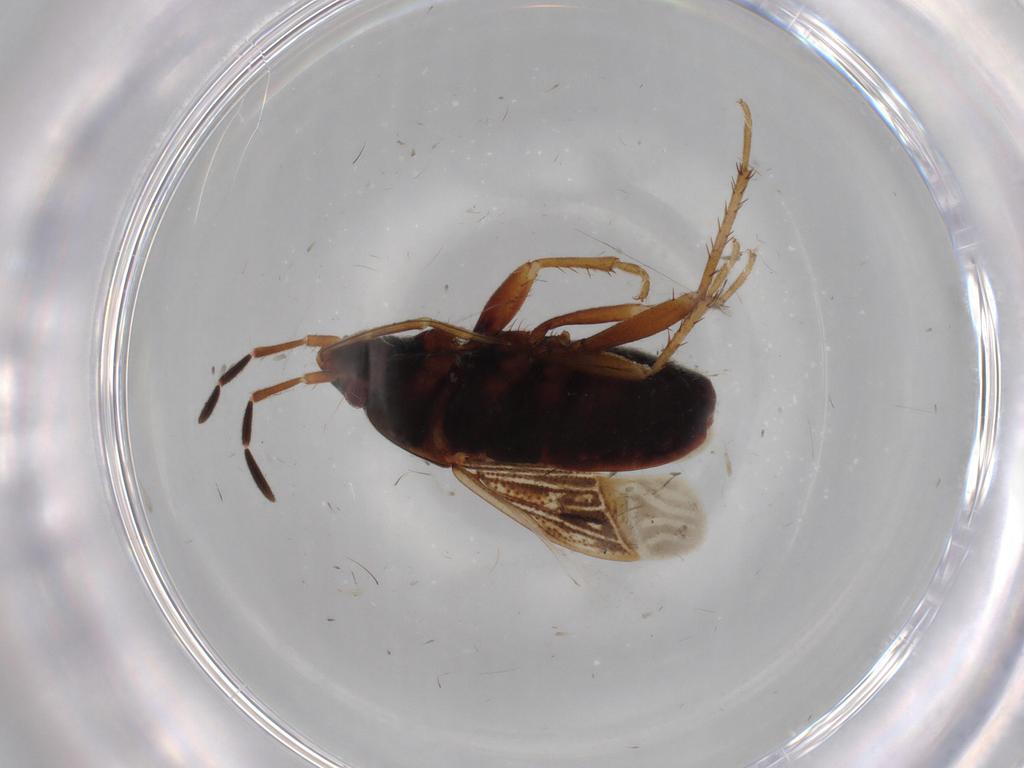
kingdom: Animalia
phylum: Arthropoda
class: Insecta
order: Hemiptera
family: Rhyparochromidae
